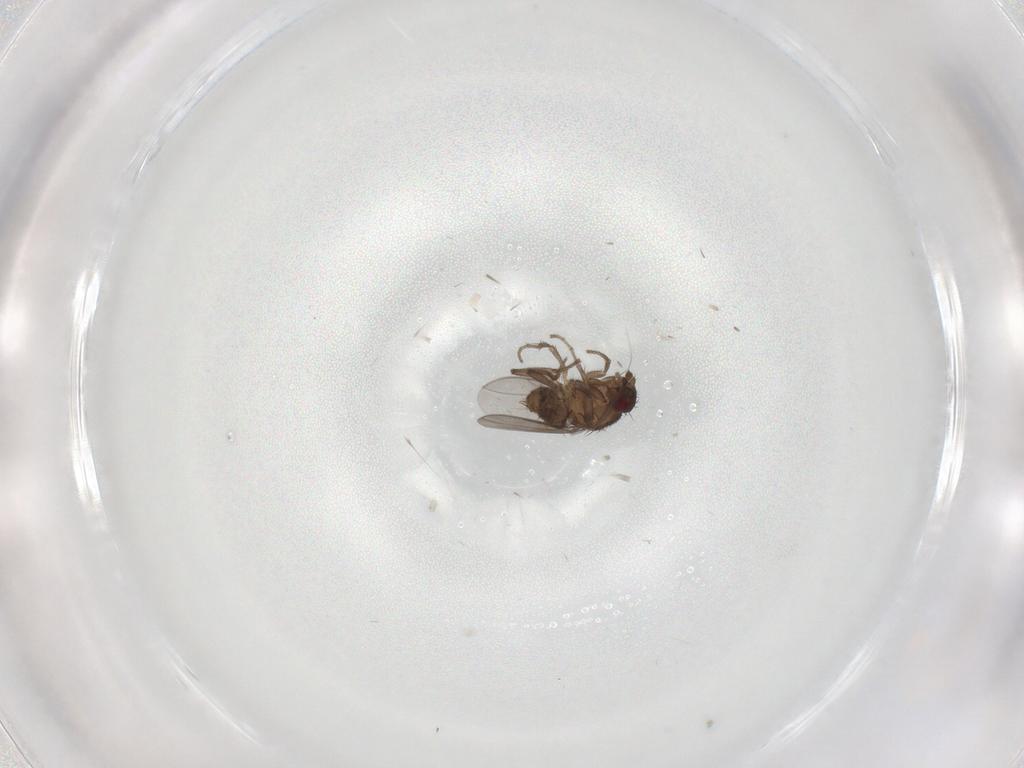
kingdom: Animalia
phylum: Arthropoda
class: Insecta
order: Diptera
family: Sphaeroceridae
